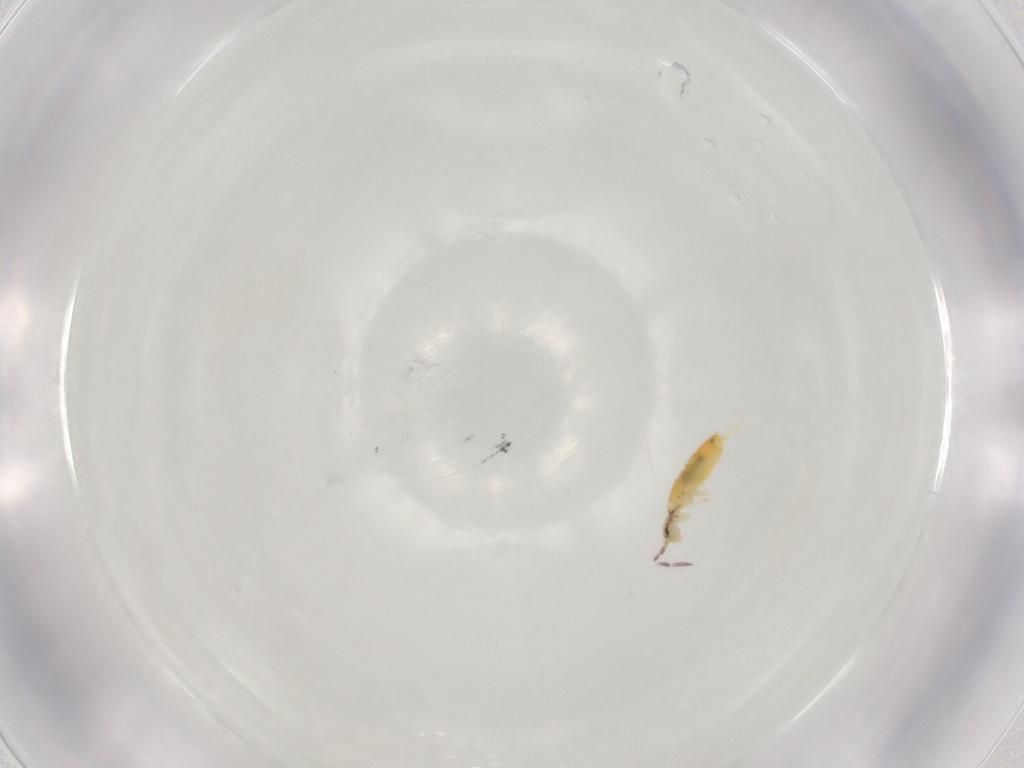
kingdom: Animalia
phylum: Arthropoda
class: Collembola
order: Entomobryomorpha
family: Entomobryidae
